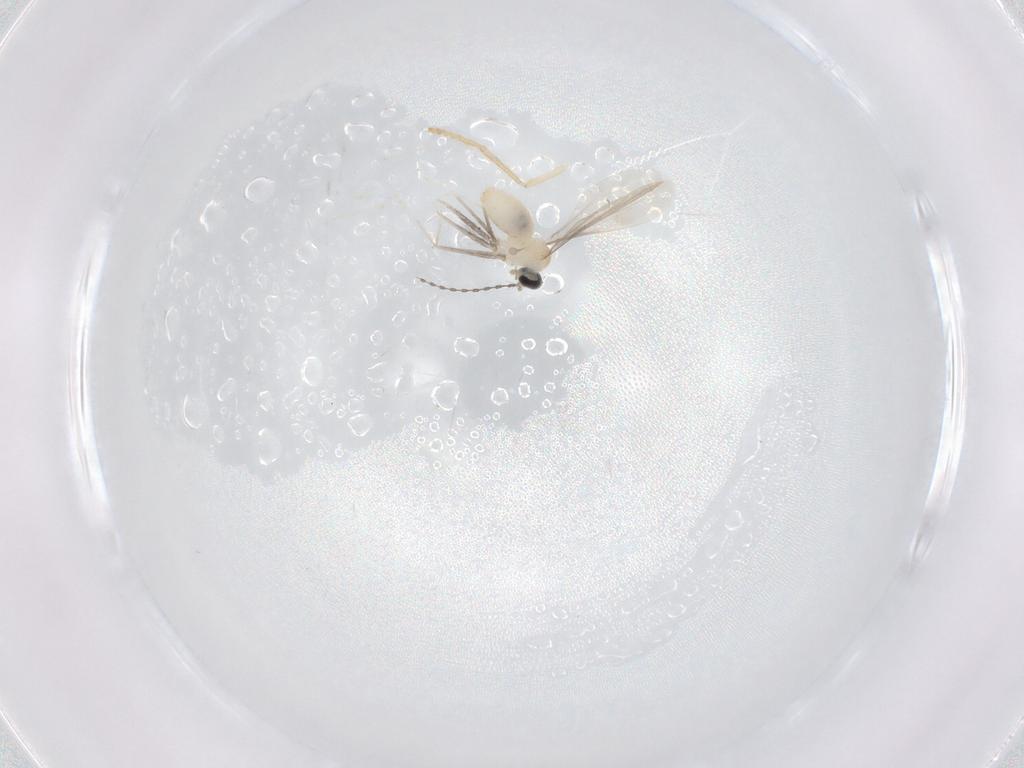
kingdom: Animalia
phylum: Arthropoda
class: Insecta
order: Diptera
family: Psychodidae
